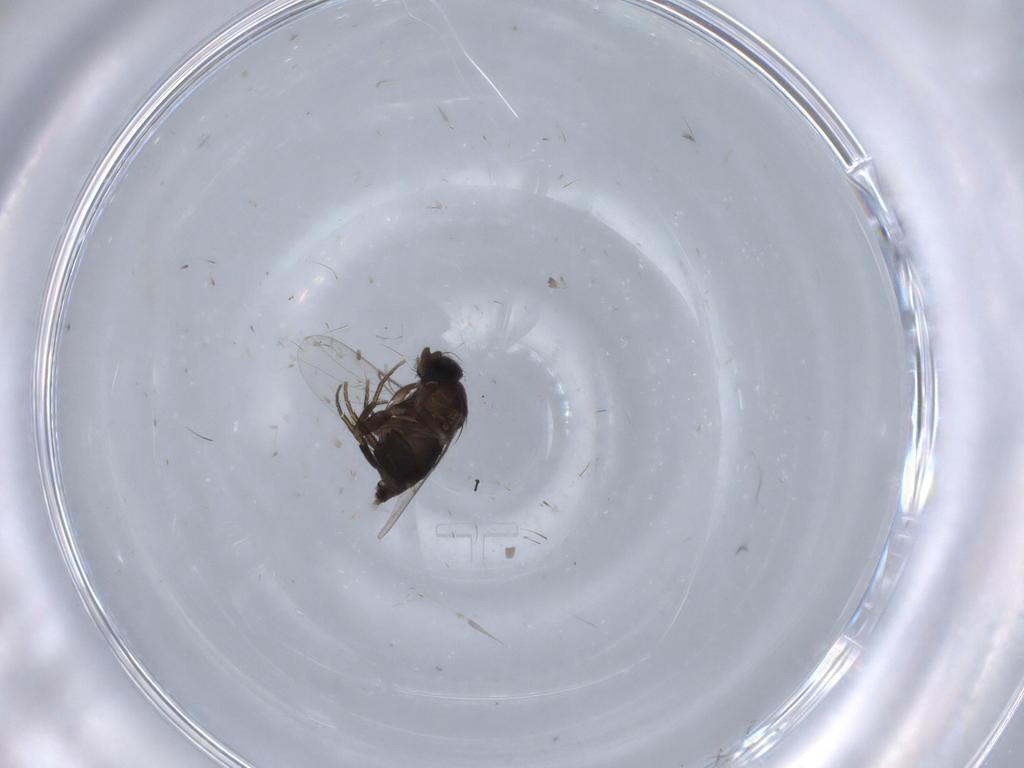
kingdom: Animalia
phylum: Arthropoda
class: Insecta
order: Diptera
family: Phoridae
